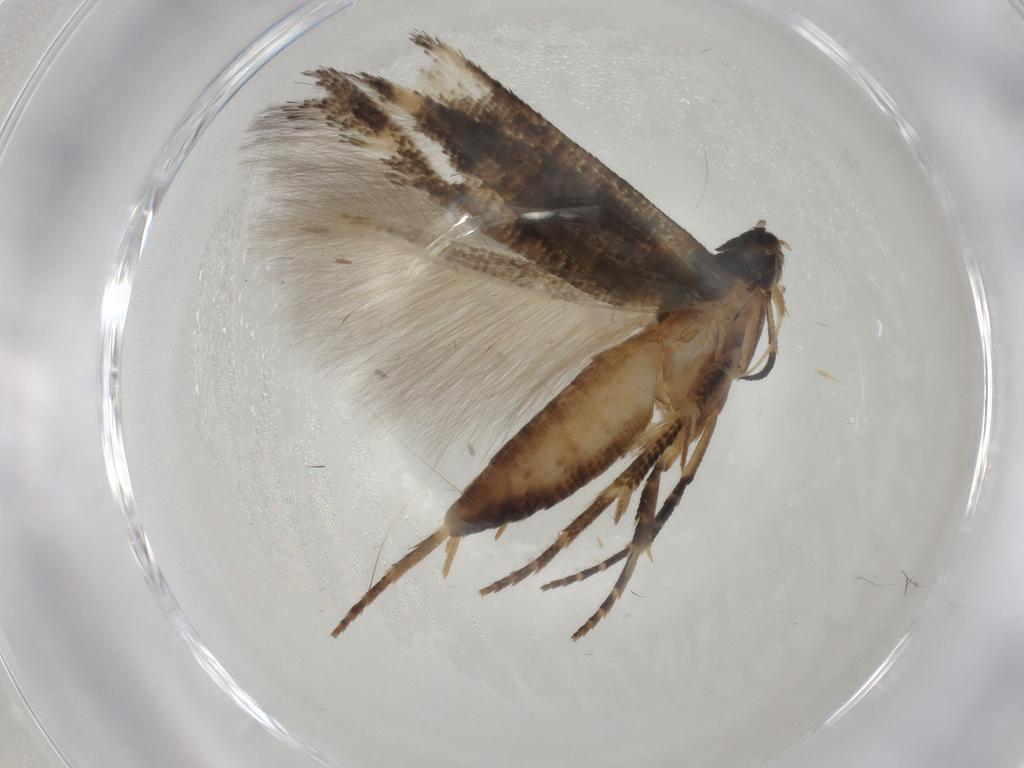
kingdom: Animalia
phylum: Arthropoda
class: Insecta
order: Lepidoptera
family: Cosmopterigidae
